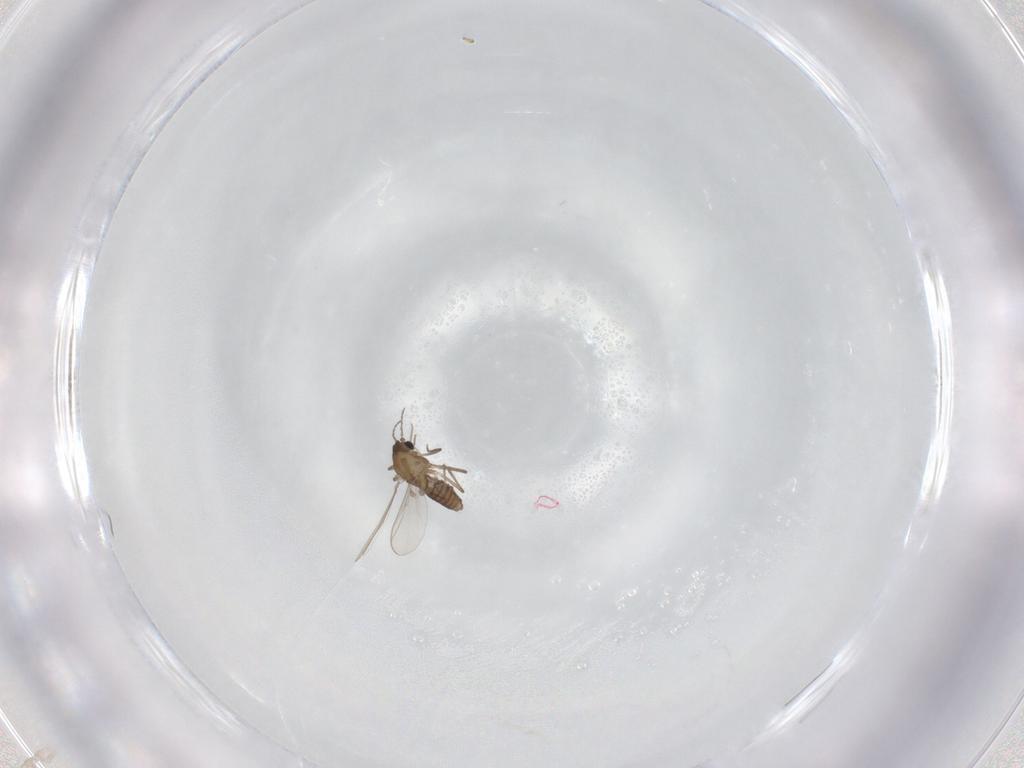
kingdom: Animalia
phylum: Arthropoda
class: Insecta
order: Diptera
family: Chironomidae
